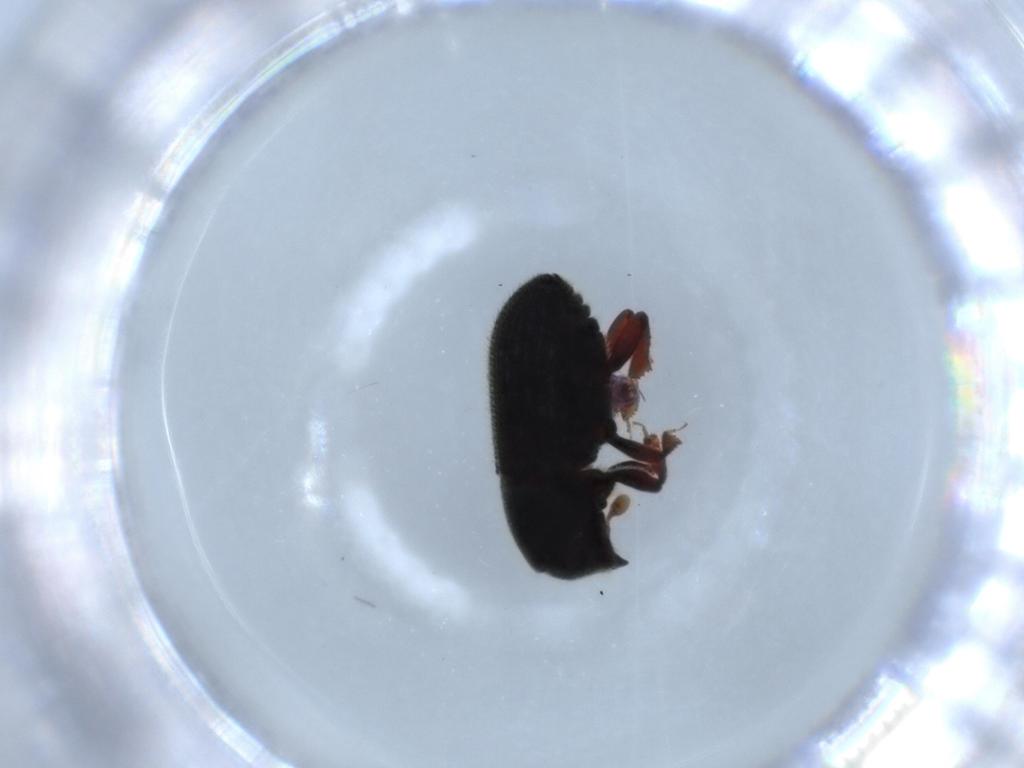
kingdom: Animalia
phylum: Arthropoda
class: Insecta
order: Coleoptera
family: Curculionidae
